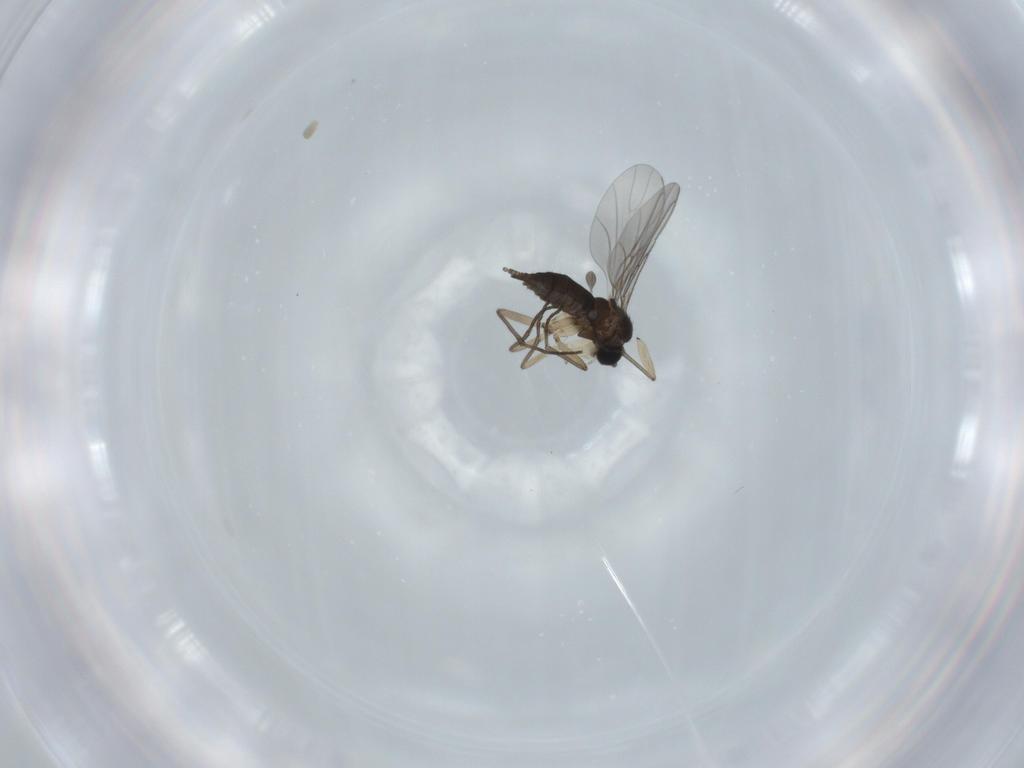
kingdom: Animalia
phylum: Arthropoda
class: Insecta
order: Diptera
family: Sciaridae
